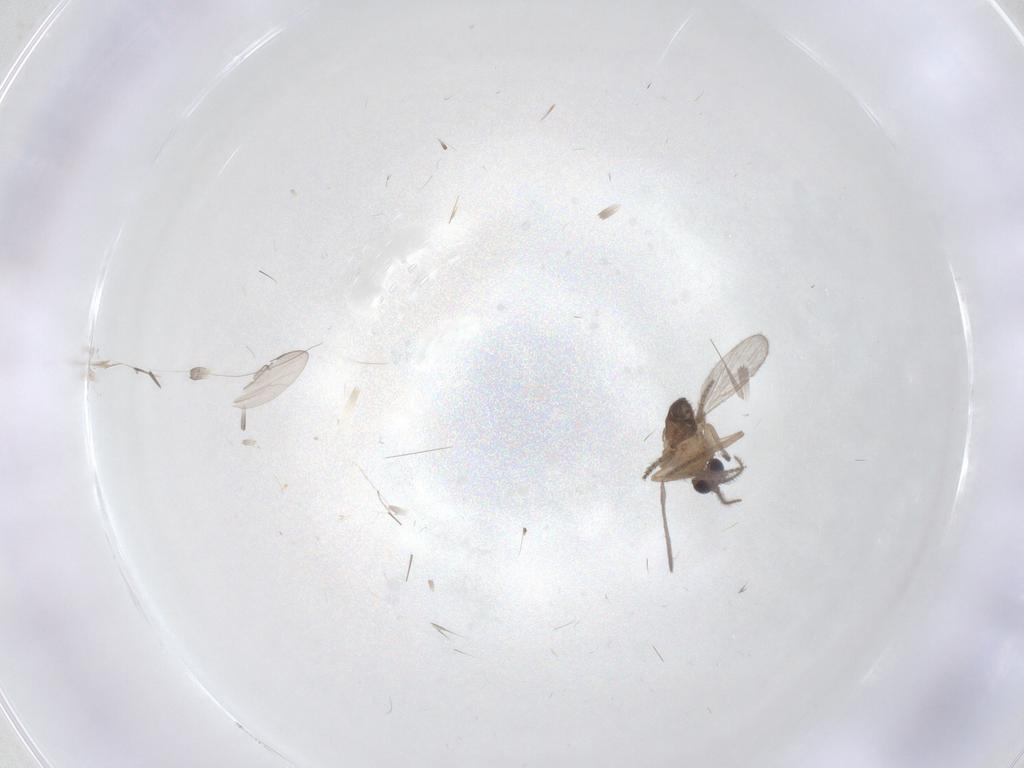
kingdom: Animalia
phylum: Arthropoda
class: Insecta
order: Diptera
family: Ceratopogonidae
